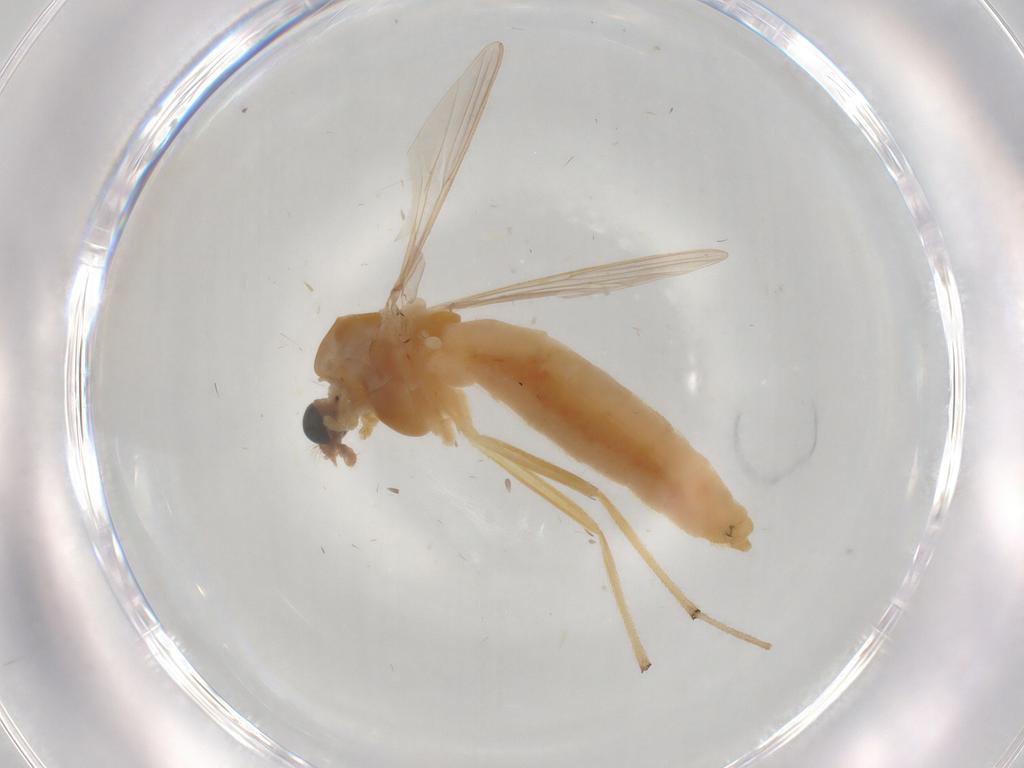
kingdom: Animalia
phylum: Arthropoda
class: Insecta
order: Diptera
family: Chironomidae
